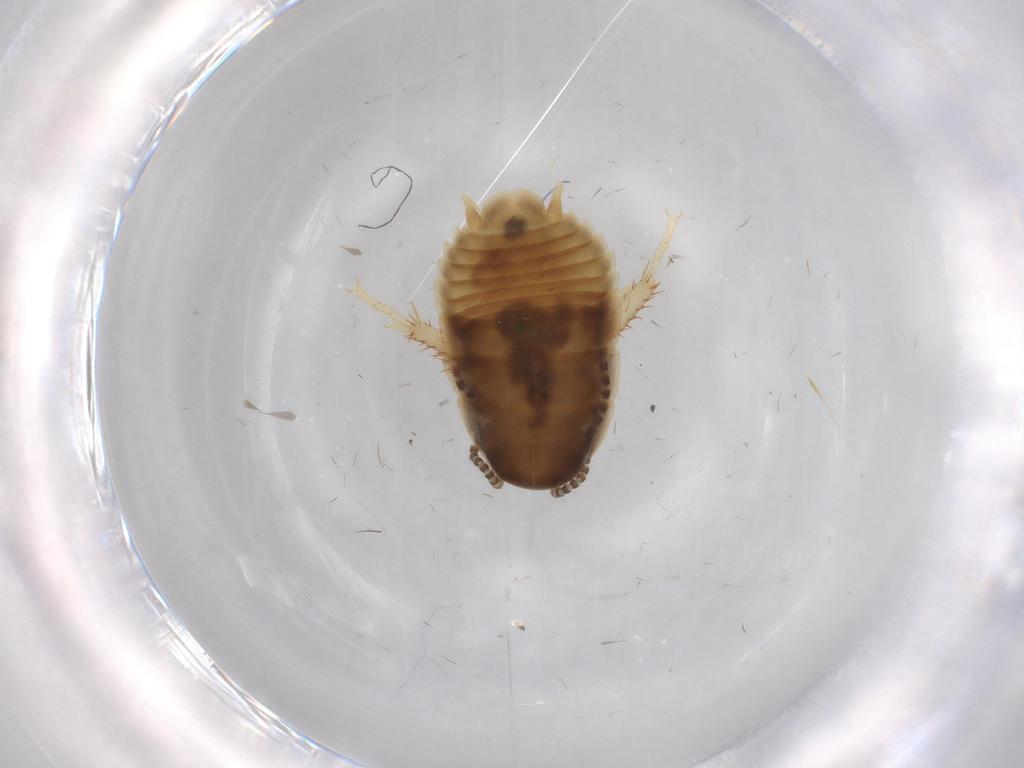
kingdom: Animalia
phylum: Arthropoda
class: Insecta
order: Blattodea
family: Blaberidae
